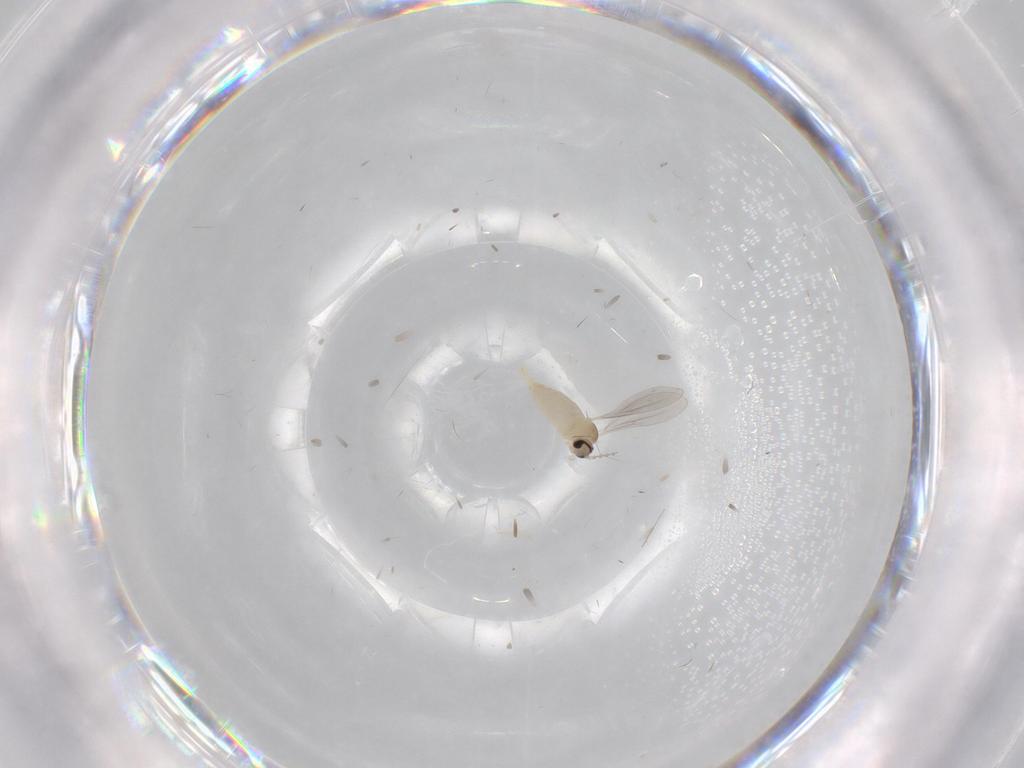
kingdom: Animalia
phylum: Arthropoda
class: Insecta
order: Diptera
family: Cecidomyiidae
